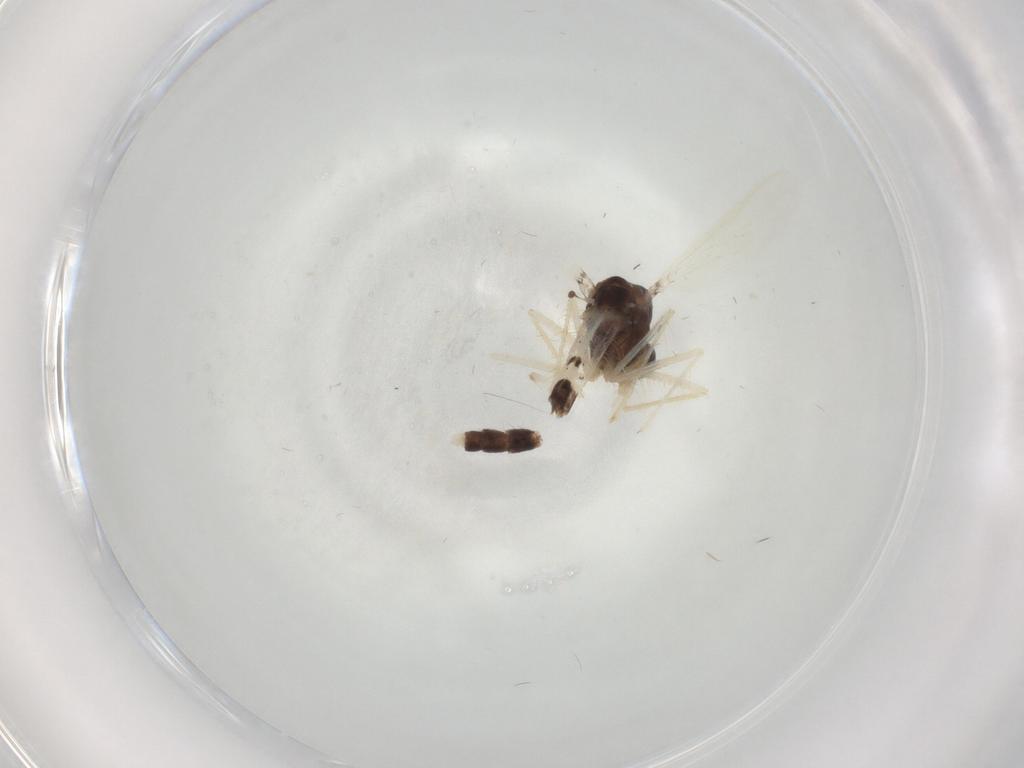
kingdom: Animalia
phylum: Arthropoda
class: Insecta
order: Diptera
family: Chironomidae
